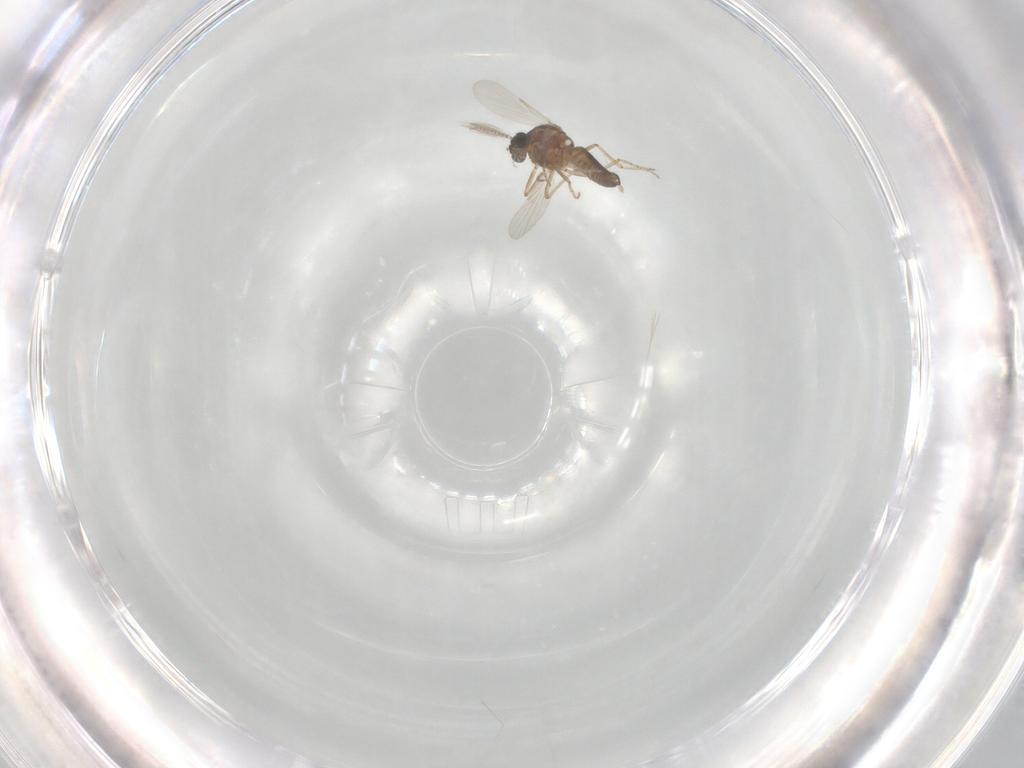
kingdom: Animalia
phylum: Arthropoda
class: Insecta
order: Diptera
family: Ceratopogonidae
